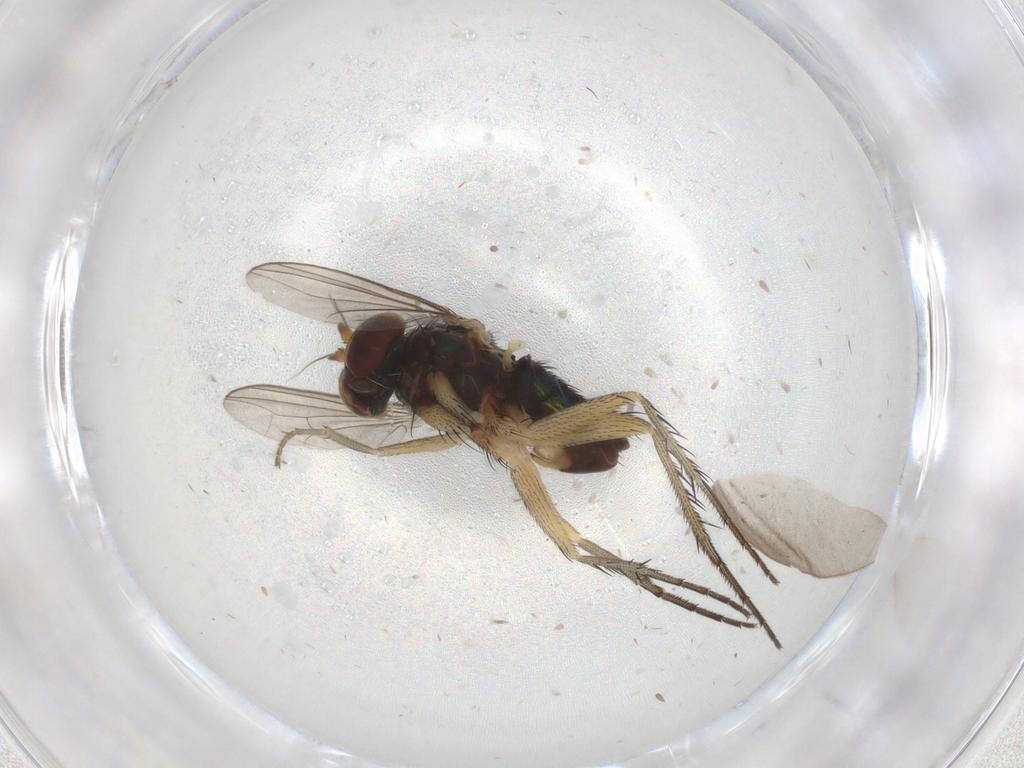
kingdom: Animalia
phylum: Arthropoda
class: Insecta
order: Diptera
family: Dolichopodidae
